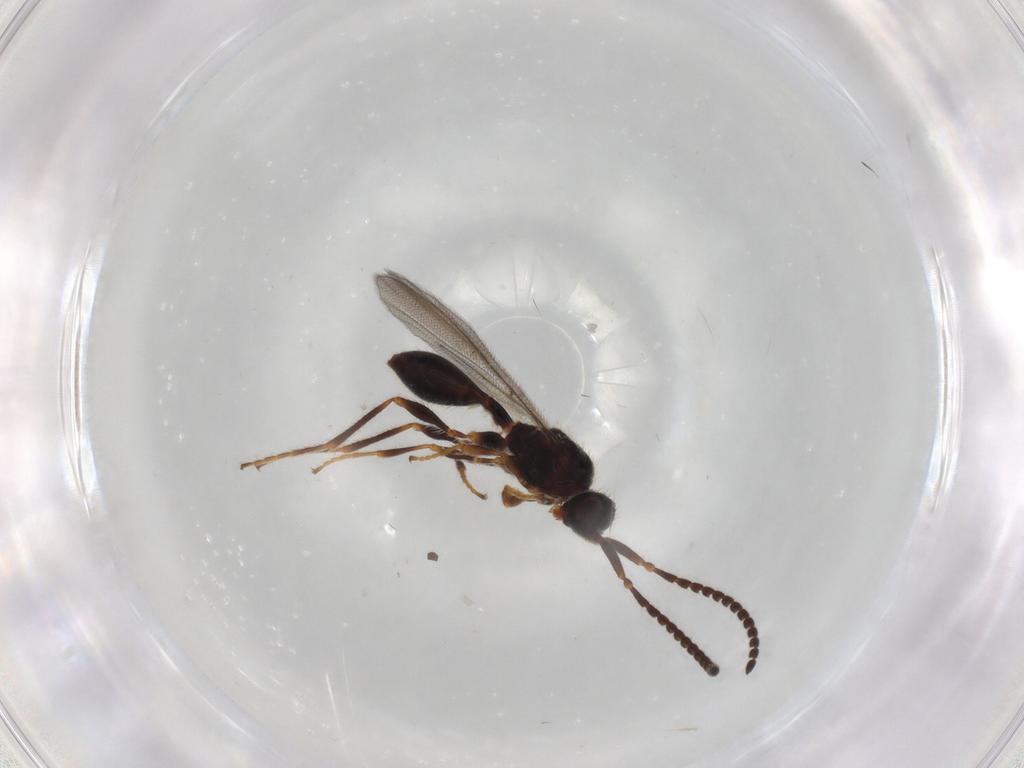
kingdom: Animalia
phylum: Arthropoda
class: Insecta
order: Hymenoptera
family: Diapriidae
